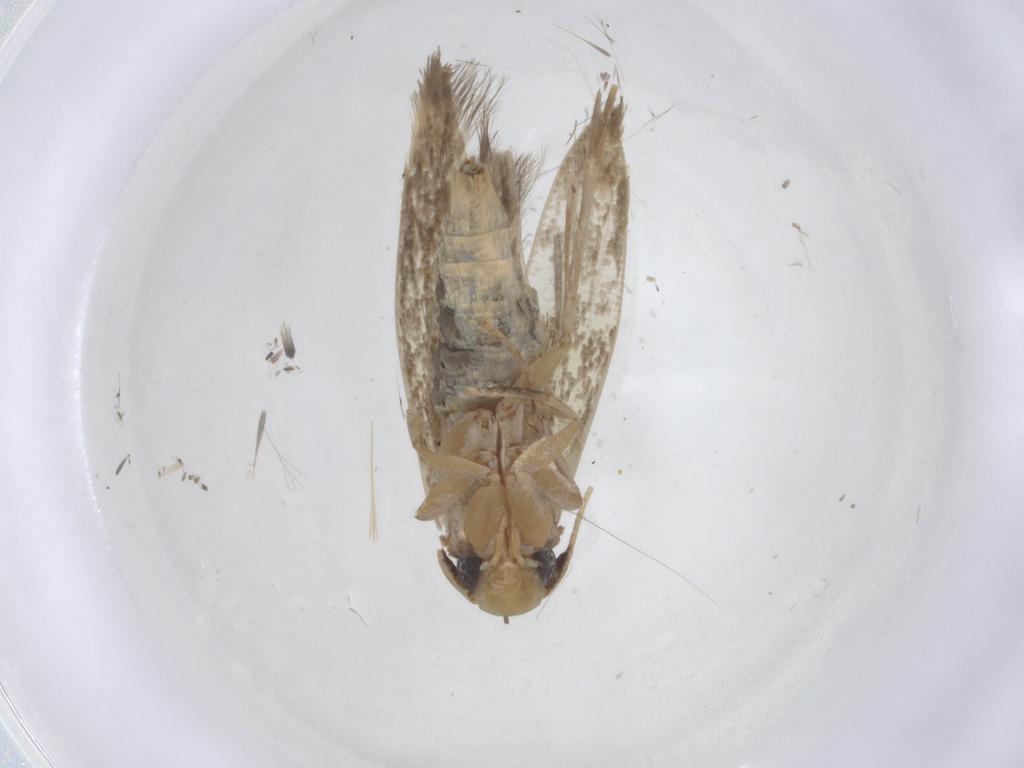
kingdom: Animalia
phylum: Arthropoda
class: Insecta
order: Lepidoptera
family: Tineidae
